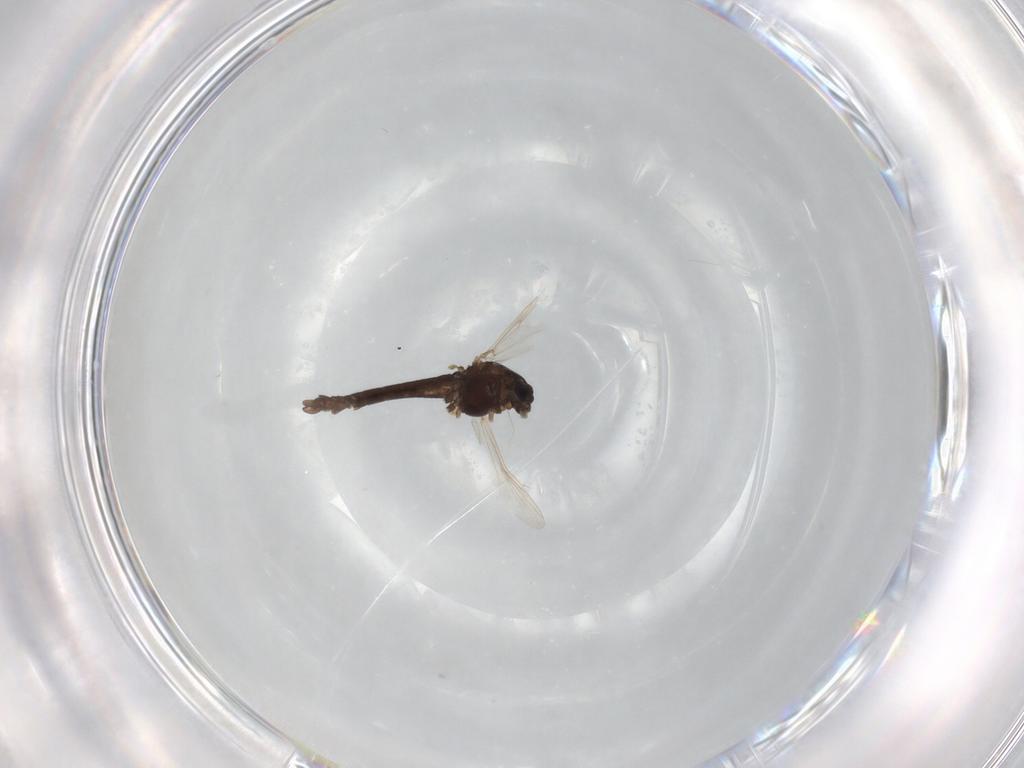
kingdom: Animalia
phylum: Arthropoda
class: Insecta
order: Diptera
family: Chironomidae
